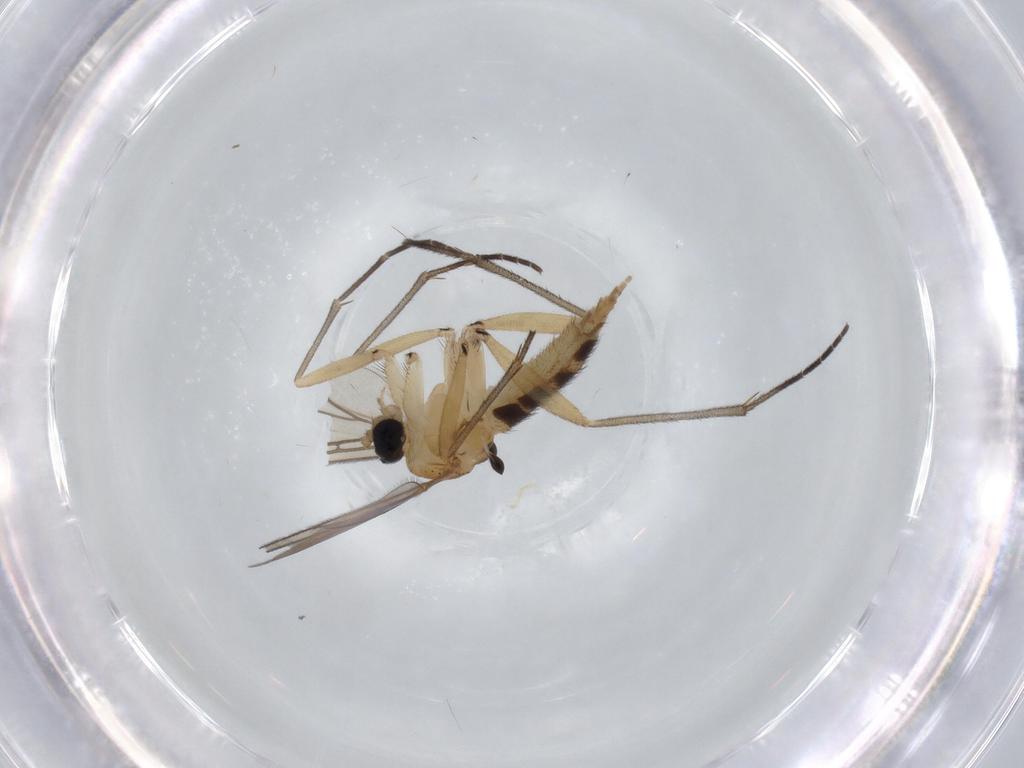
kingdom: Animalia
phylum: Arthropoda
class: Insecta
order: Diptera
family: Sciaridae
